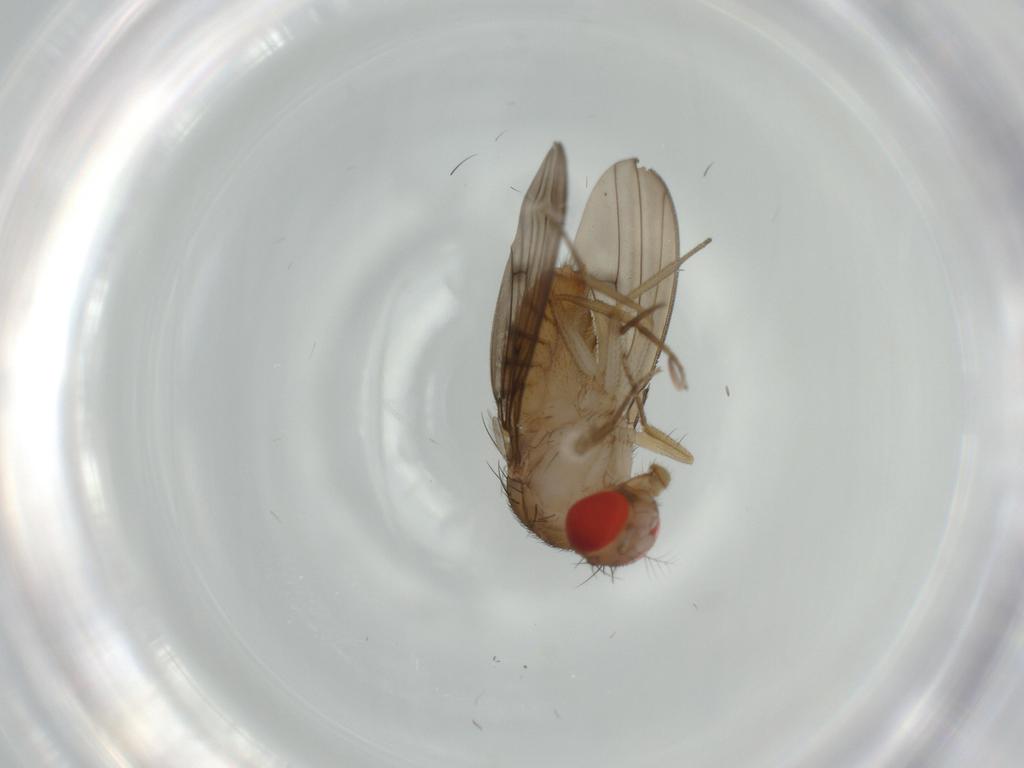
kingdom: Animalia
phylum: Arthropoda
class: Insecta
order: Diptera
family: Drosophilidae
